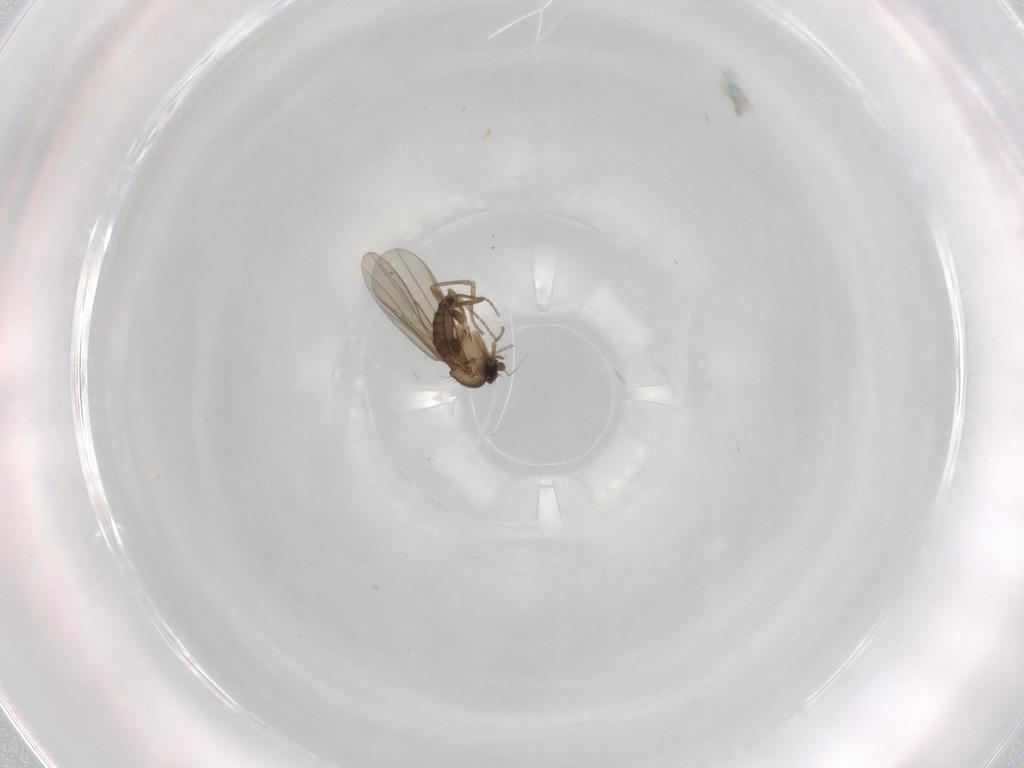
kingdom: Animalia
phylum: Arthropoda
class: Insecta
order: Diptera
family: Phoridae
